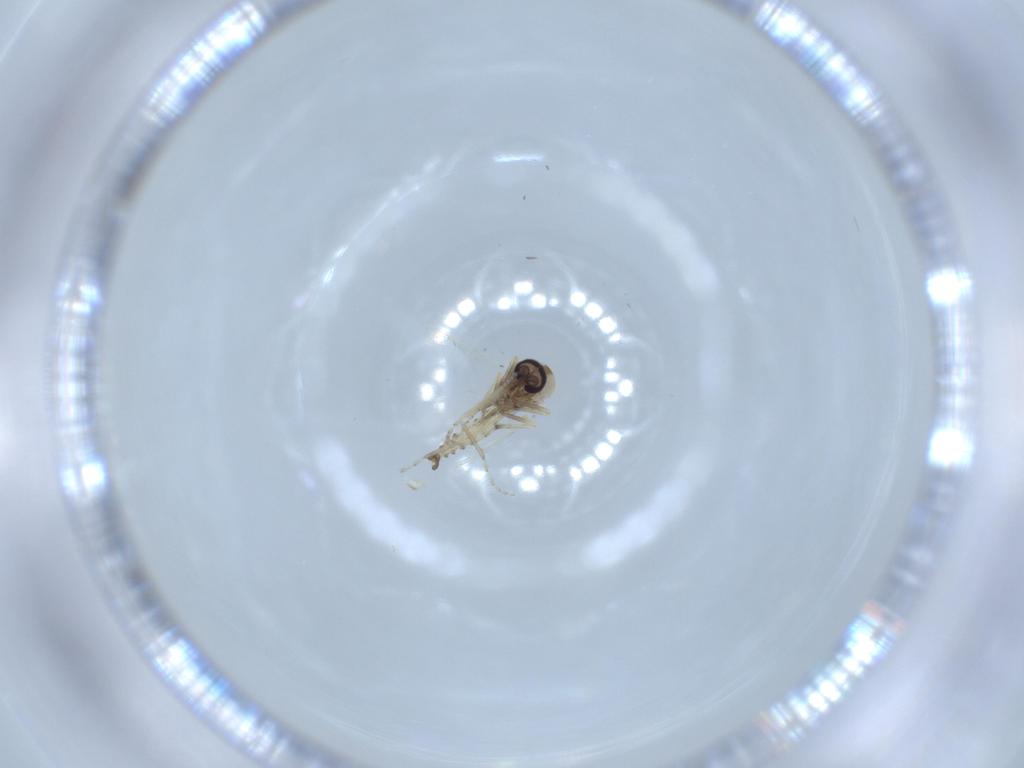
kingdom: Animalia
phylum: Arthropoda
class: Insecta
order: Diptera
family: Ceratopogonidae
